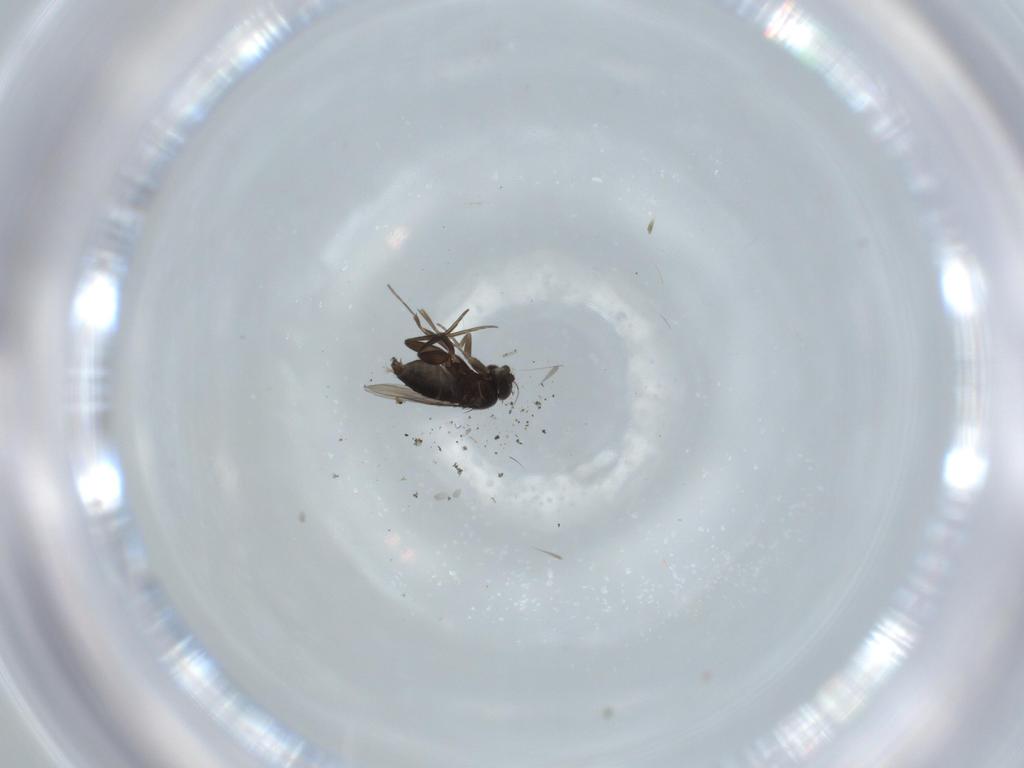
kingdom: Animalia
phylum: Arthropoda
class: Insecta
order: Diptera
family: Phoridae
